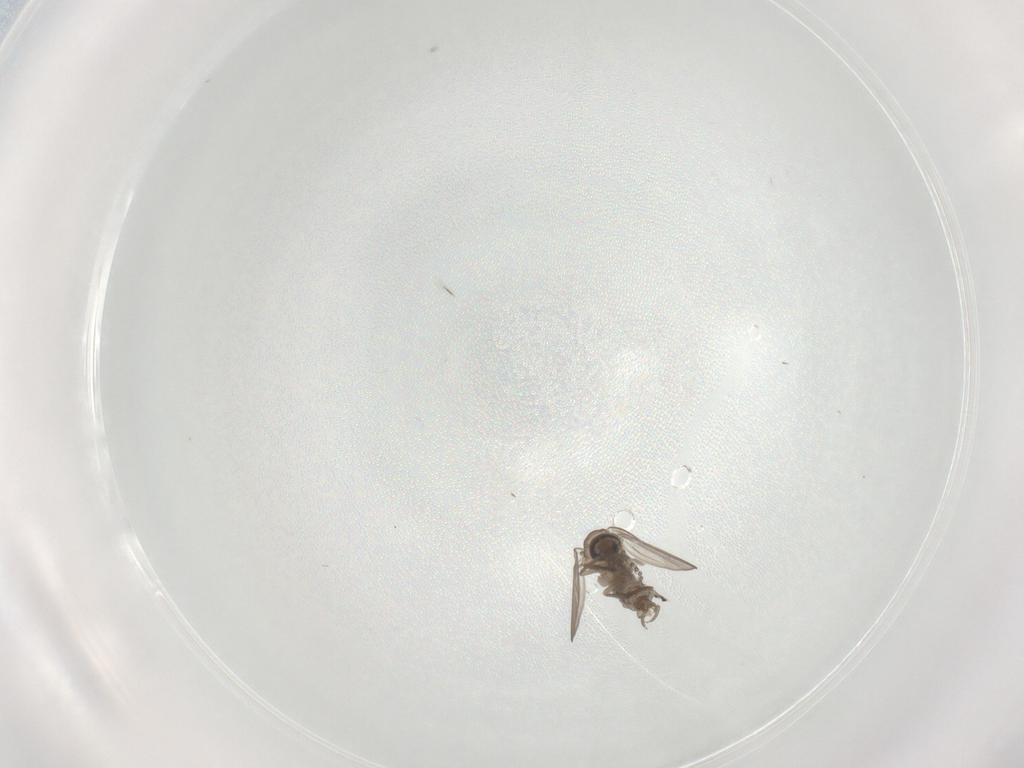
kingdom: Animalia
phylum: Arthropoda
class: Insecta
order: Diptera
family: Psychodidae
